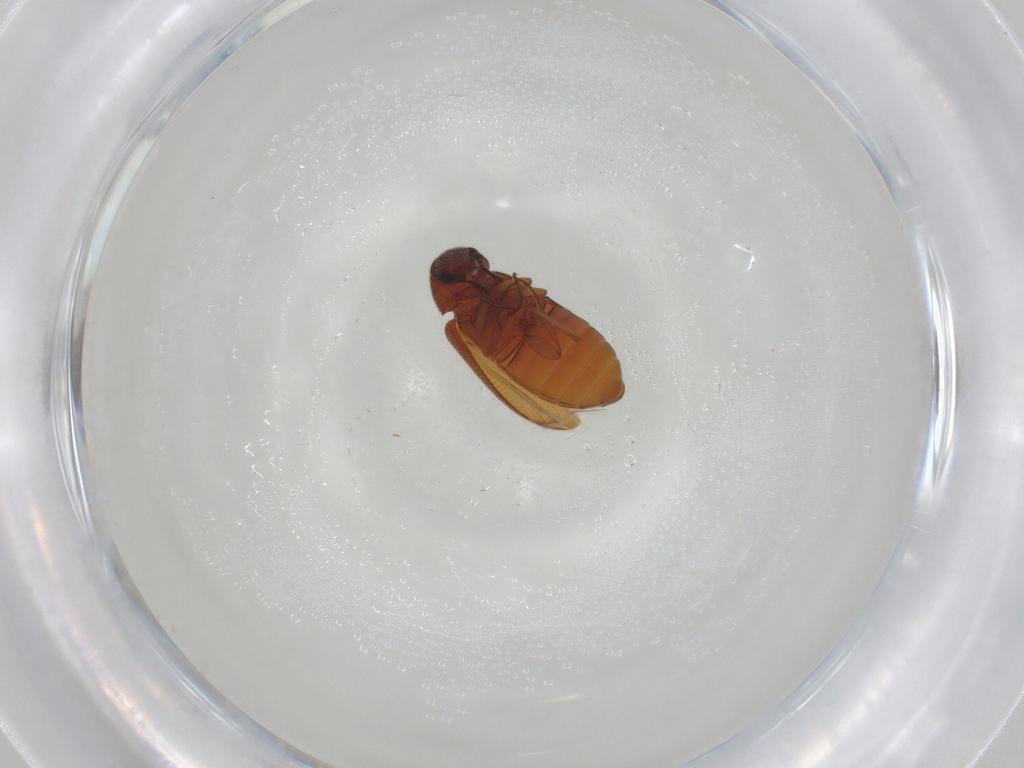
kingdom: Animalia
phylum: Arthropoda
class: Insecta
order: Coleoptera
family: Rhadalidae
